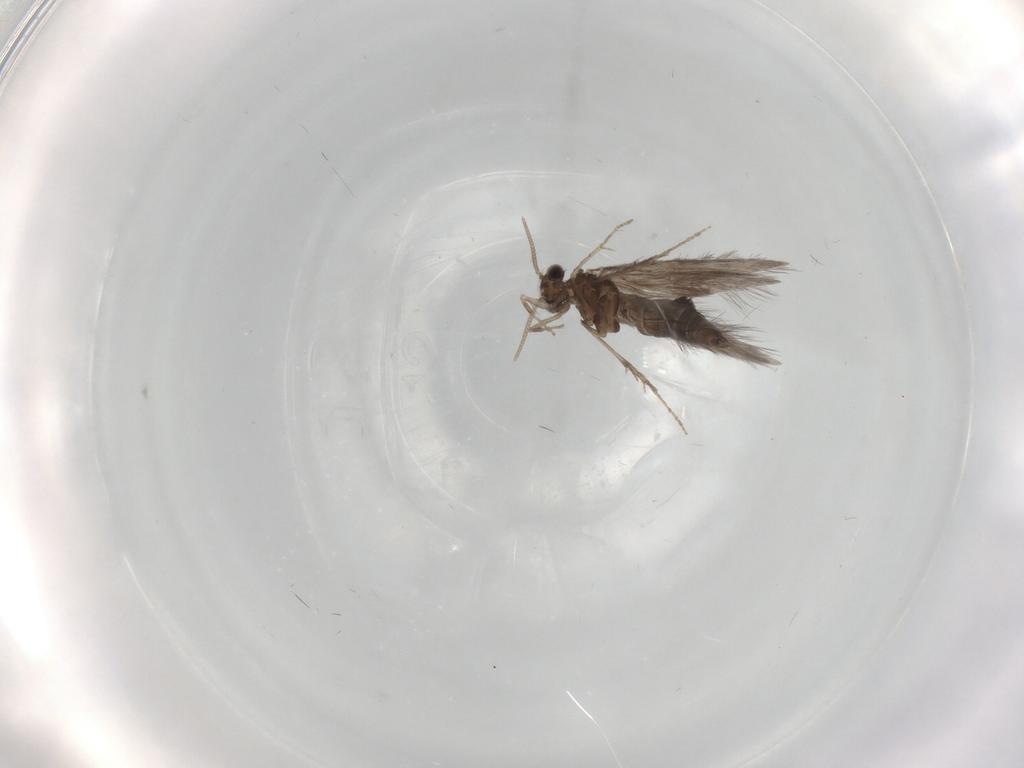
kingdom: Animalia
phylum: Arthropoda
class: Insecta
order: Trichoptera
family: Hydroptilidae
